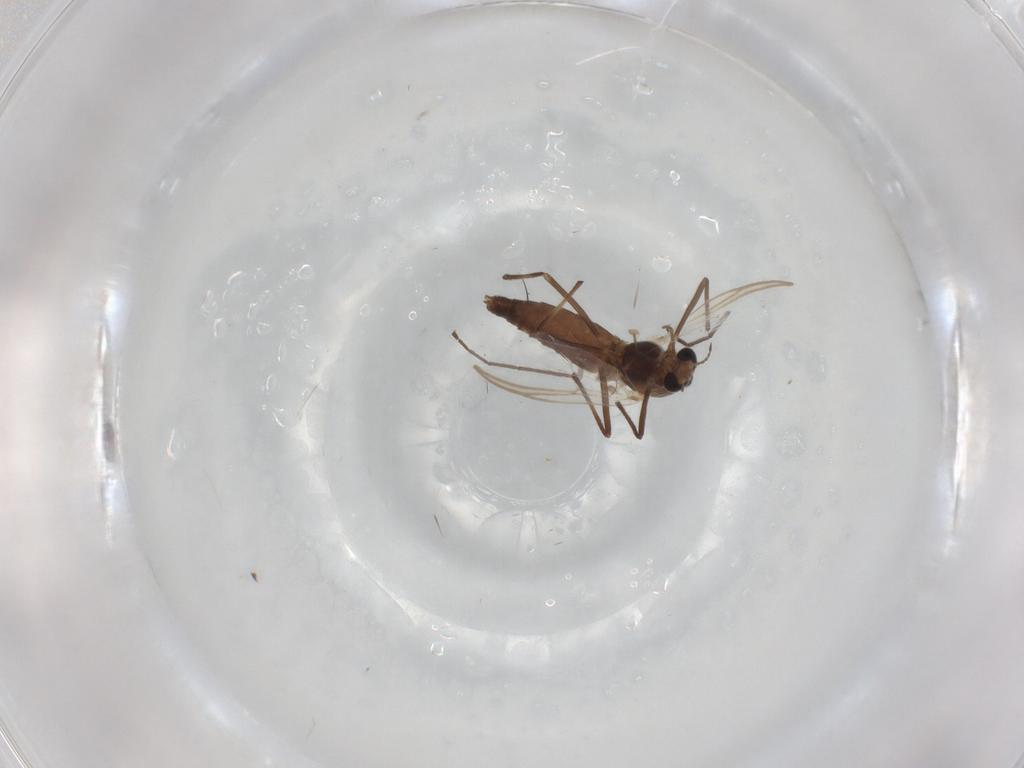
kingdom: Animalia
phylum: Arthropoda
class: Insecta
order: Diptera
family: Chironomidae
